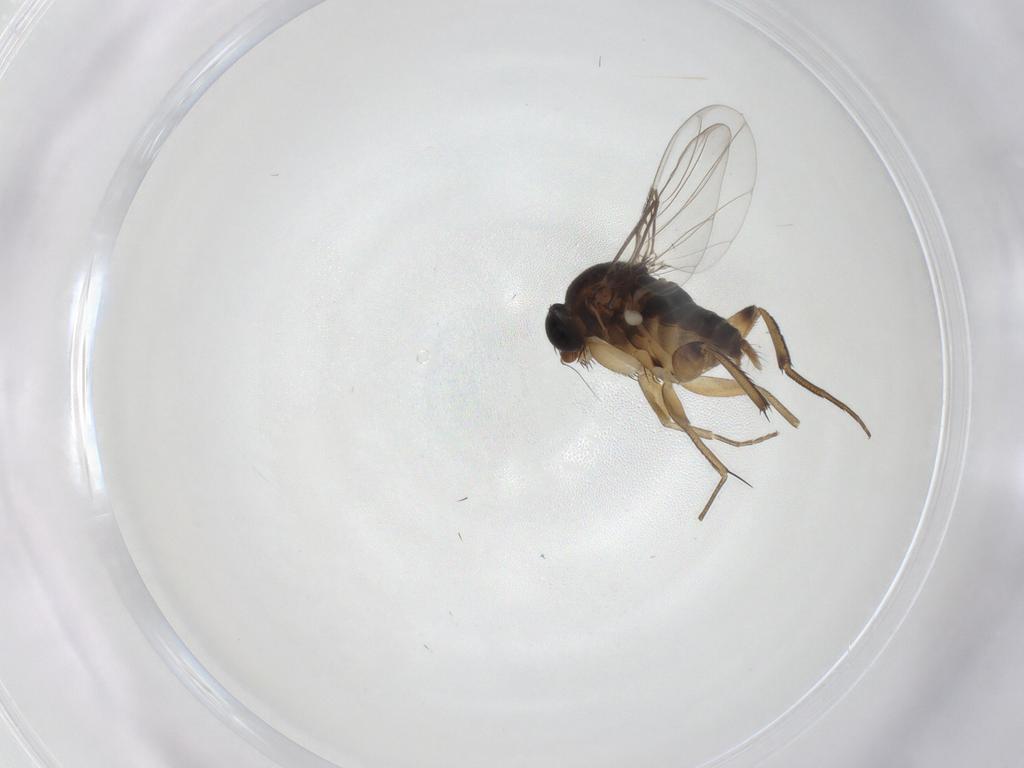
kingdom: Animalia
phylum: Arthropoda
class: Insecta
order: Diptera
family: Phoridae
